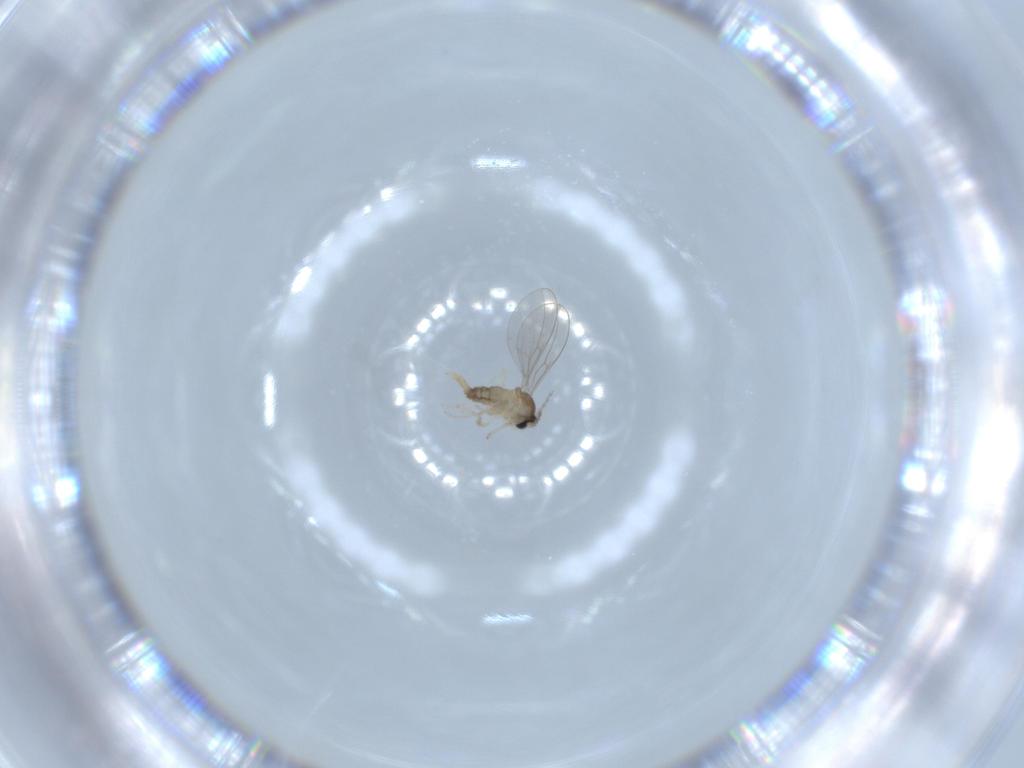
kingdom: Animalia
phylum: Arthropoda
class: Insecta
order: Diptera
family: Cecidomyiidae
